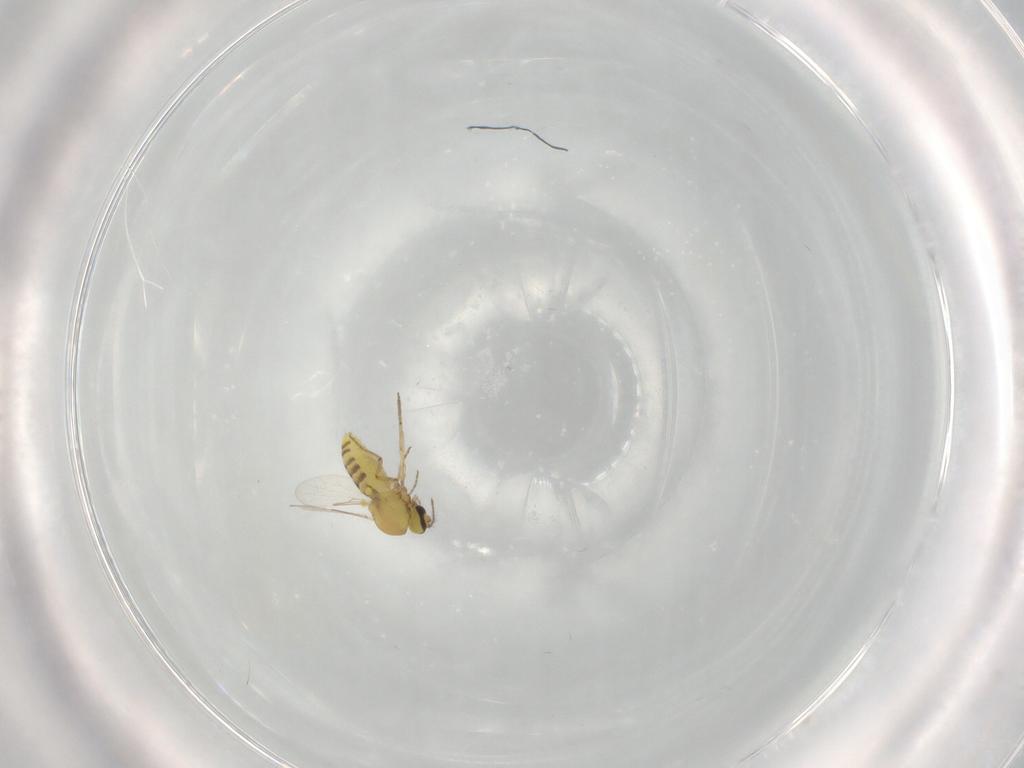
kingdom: Animalia
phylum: Arthropoda
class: Insecta
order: Diptera
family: Ceratopogonidae
